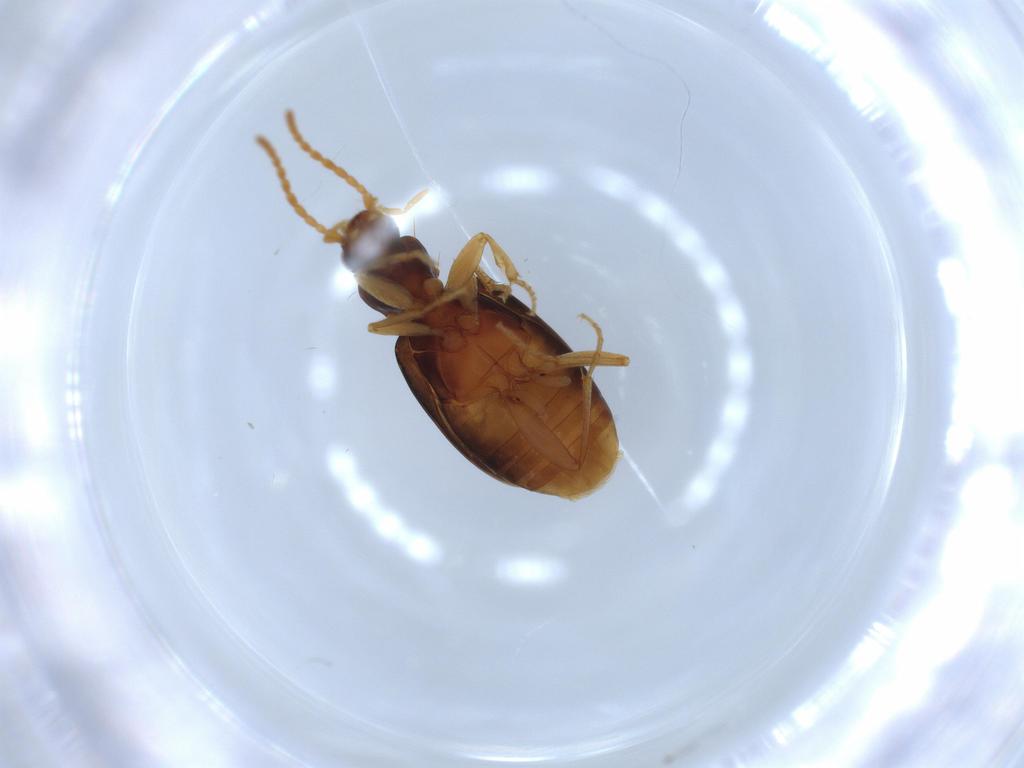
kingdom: Animalia
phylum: Arthropoda
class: Insecta
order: Coleoptera
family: Carabidae
